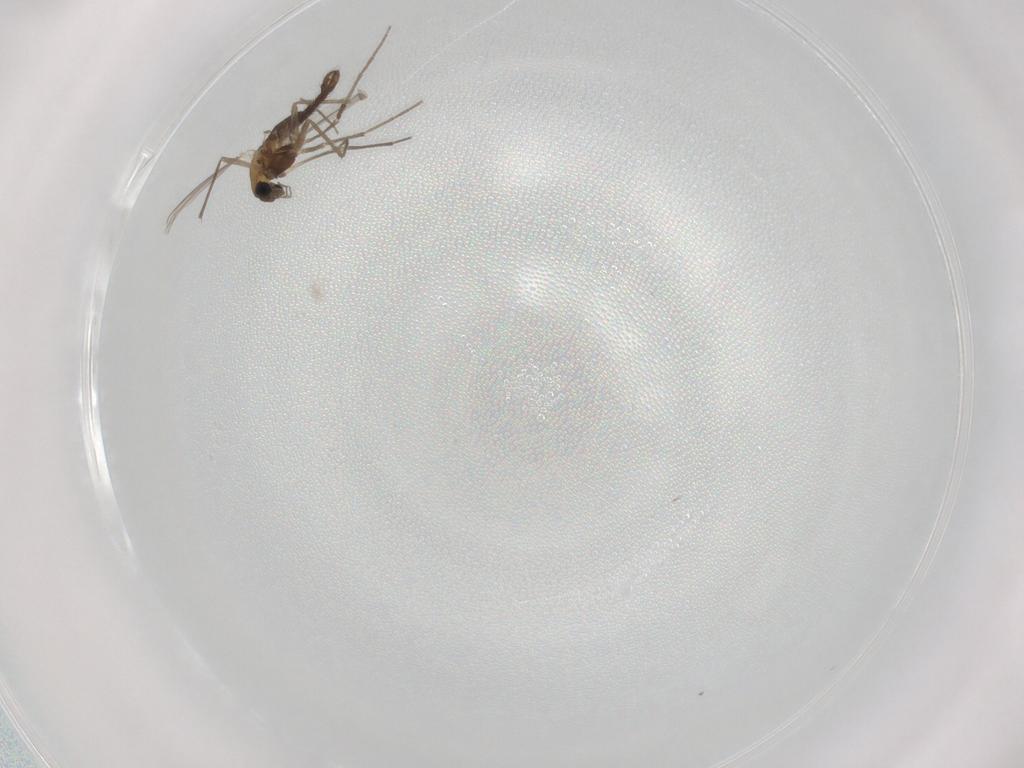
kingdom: Animalia
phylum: Arthropoda
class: Insecta
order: Diptera
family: Chironomidae
